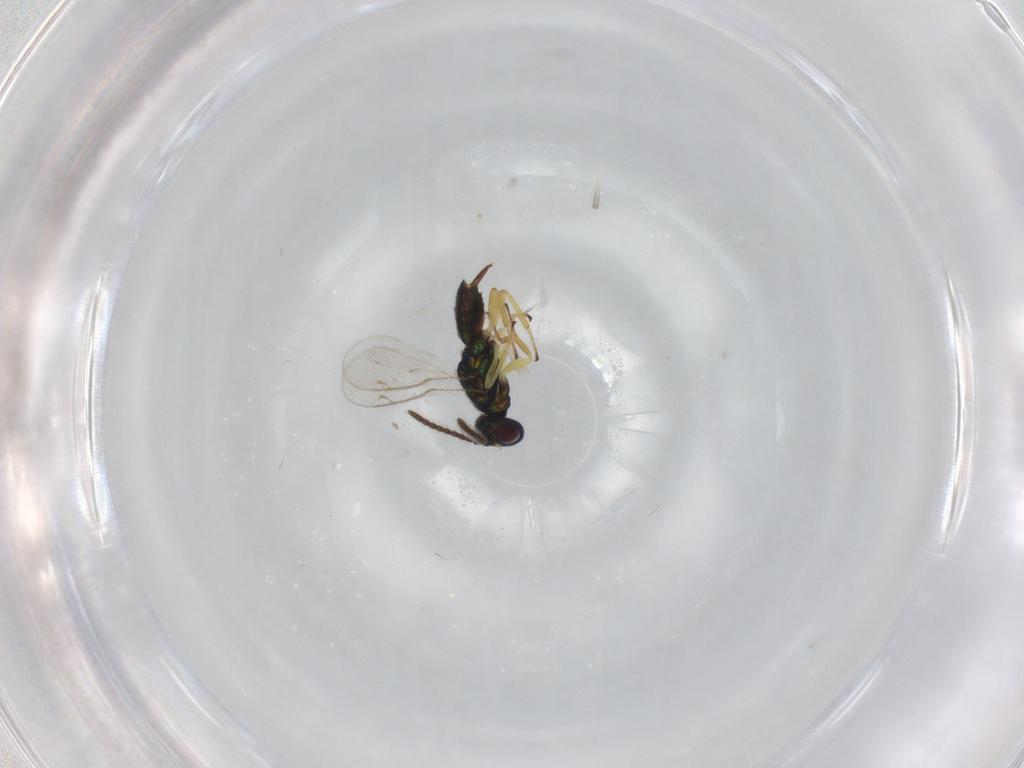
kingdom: Animalia
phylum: Arthropoda
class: Insecta
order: Hymenoptera
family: Eupelmidae
